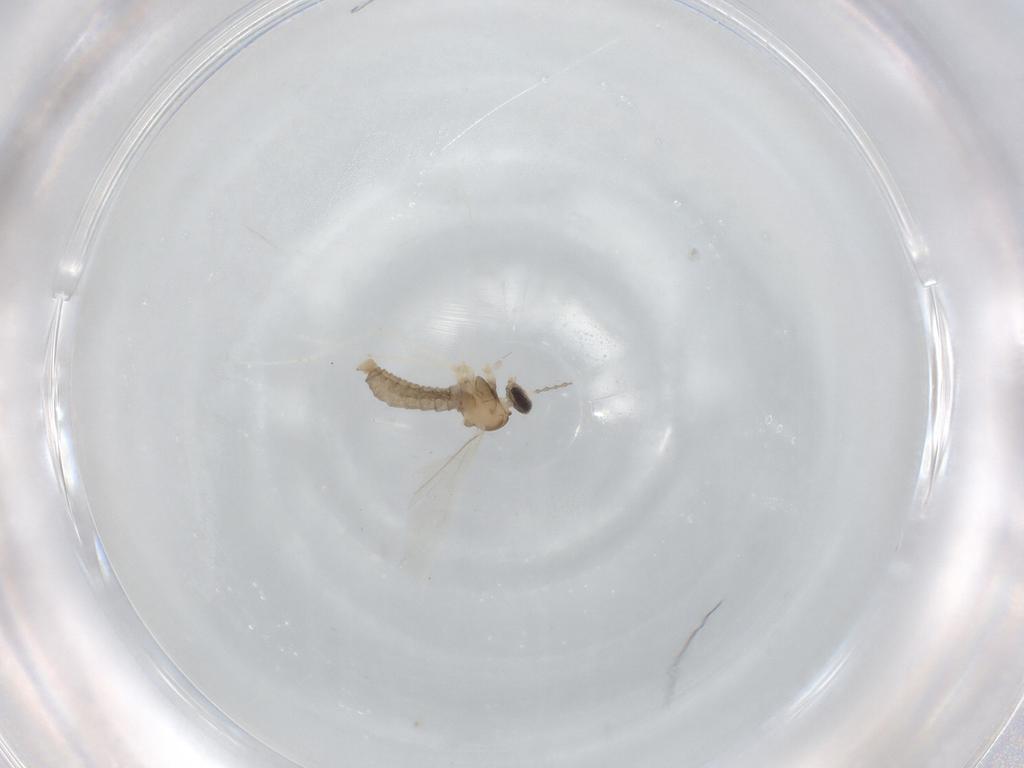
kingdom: Animalia
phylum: Arthropoda
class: Insecta
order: Diptera
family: Cecidomyiidae
